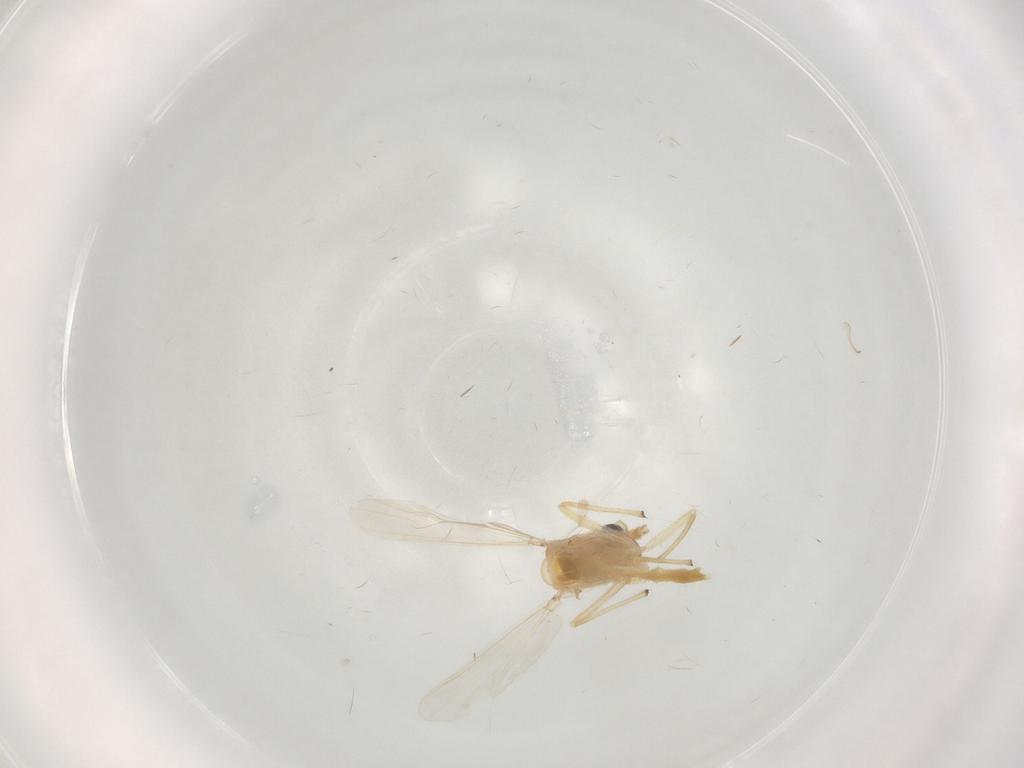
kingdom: Animalia
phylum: Arthropoda
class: Insecta
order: Diptera
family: Chironomidae
